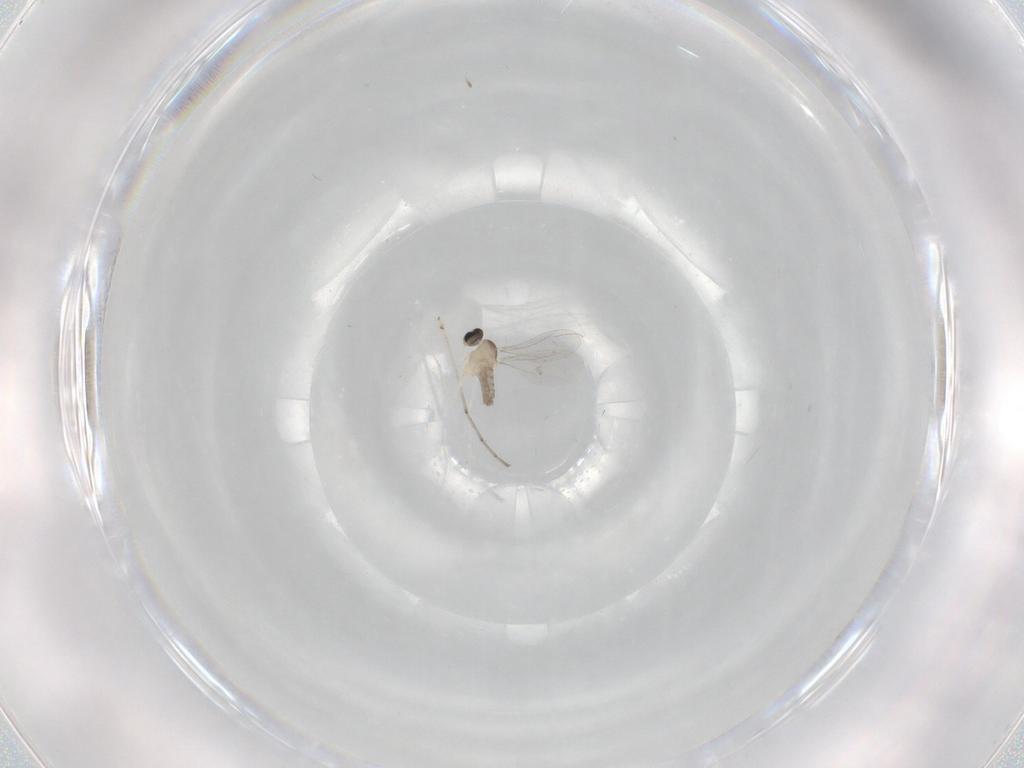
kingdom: Animalia
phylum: Arthropoda
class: Insecta
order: Diptera
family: Cecidomyiidae
